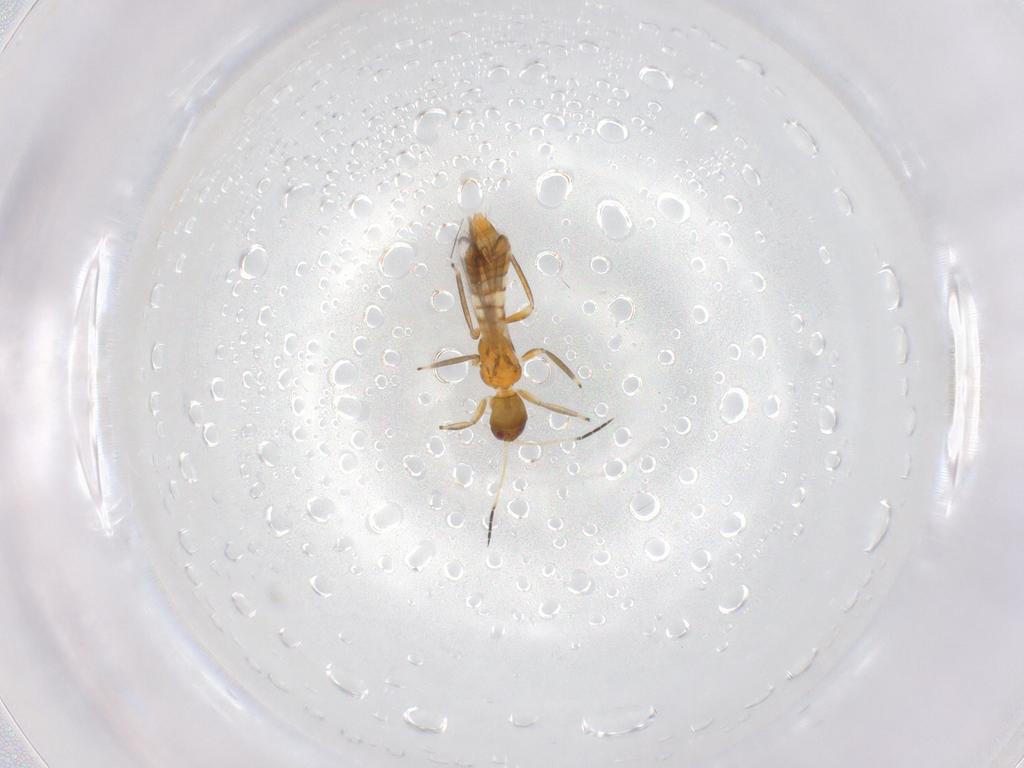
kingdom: Animalia
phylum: Arthropoda
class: Insecta
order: Thysanoptera
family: Aeolothripidae
